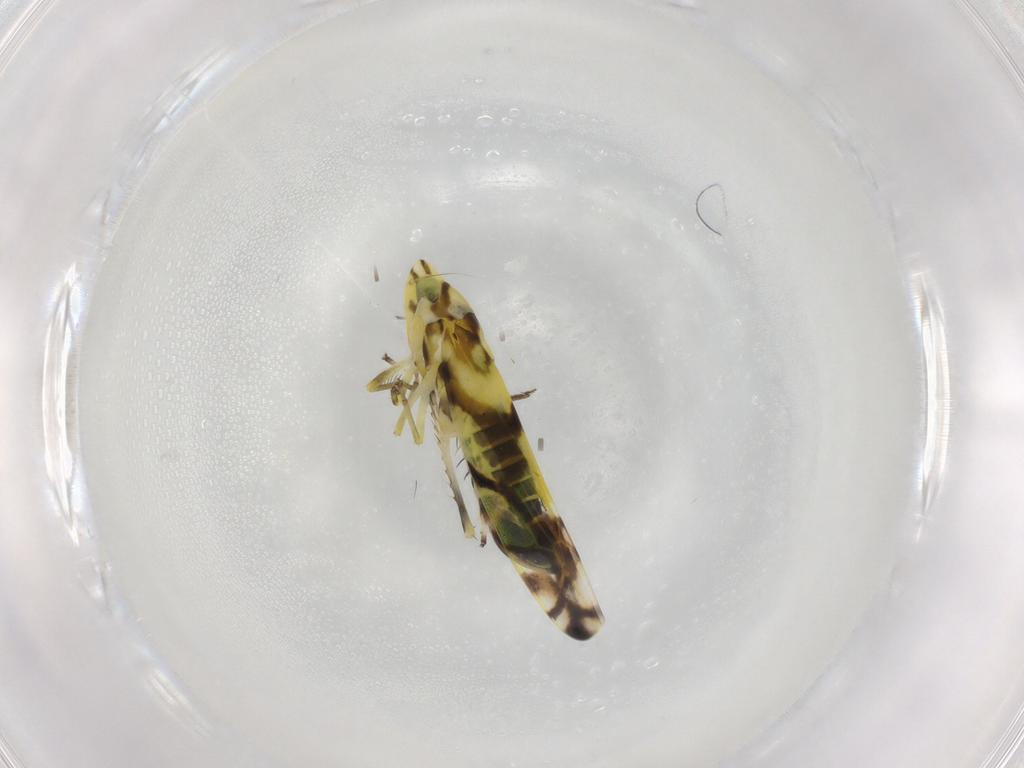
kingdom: Animalia
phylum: Arthropoda
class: Insecta
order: Hemiptera
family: Cicadellidae
